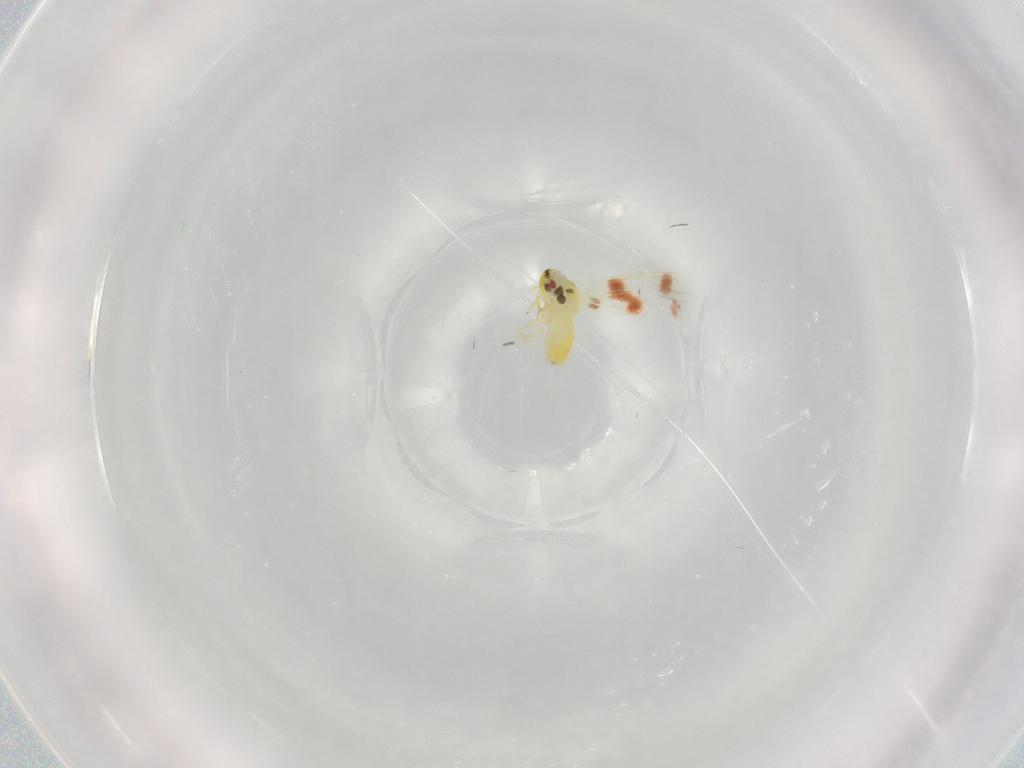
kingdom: Animalia
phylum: Arthropoda
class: Insecta
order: Hemiptera
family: Aleyrodidae
